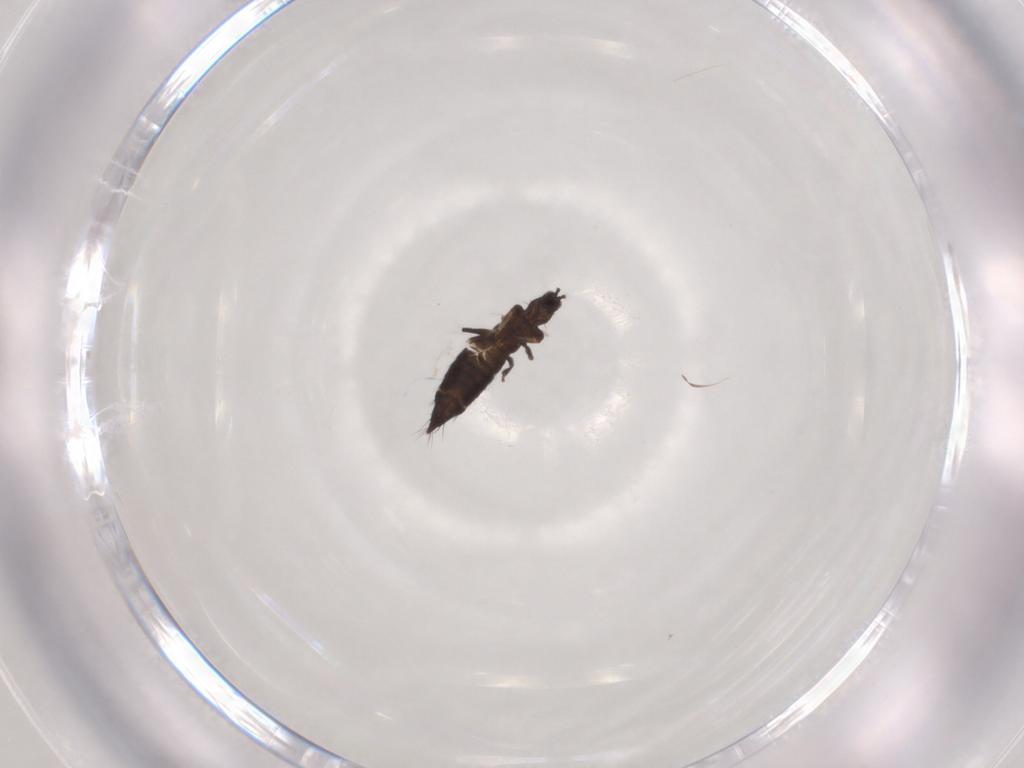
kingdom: Animalia
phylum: Arthropoda
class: Insecta
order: Thysanoptera
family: Thripidae
